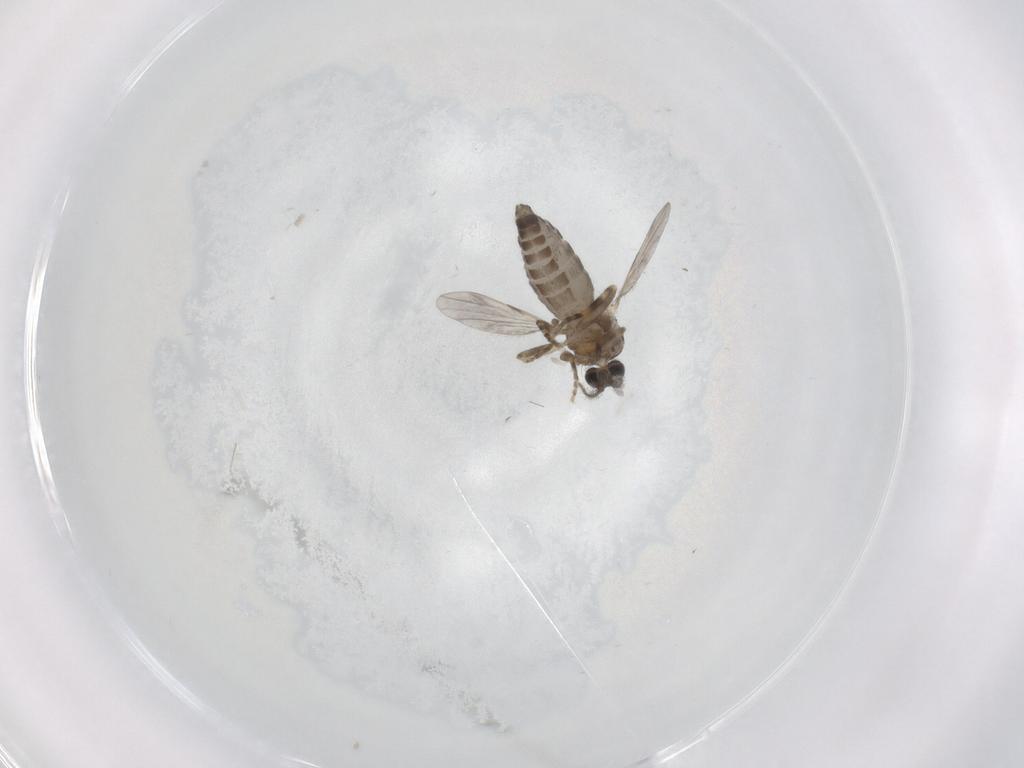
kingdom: Animalia
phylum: Arthropoda
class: Insecta
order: Diptera
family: Ceratopogonidae
